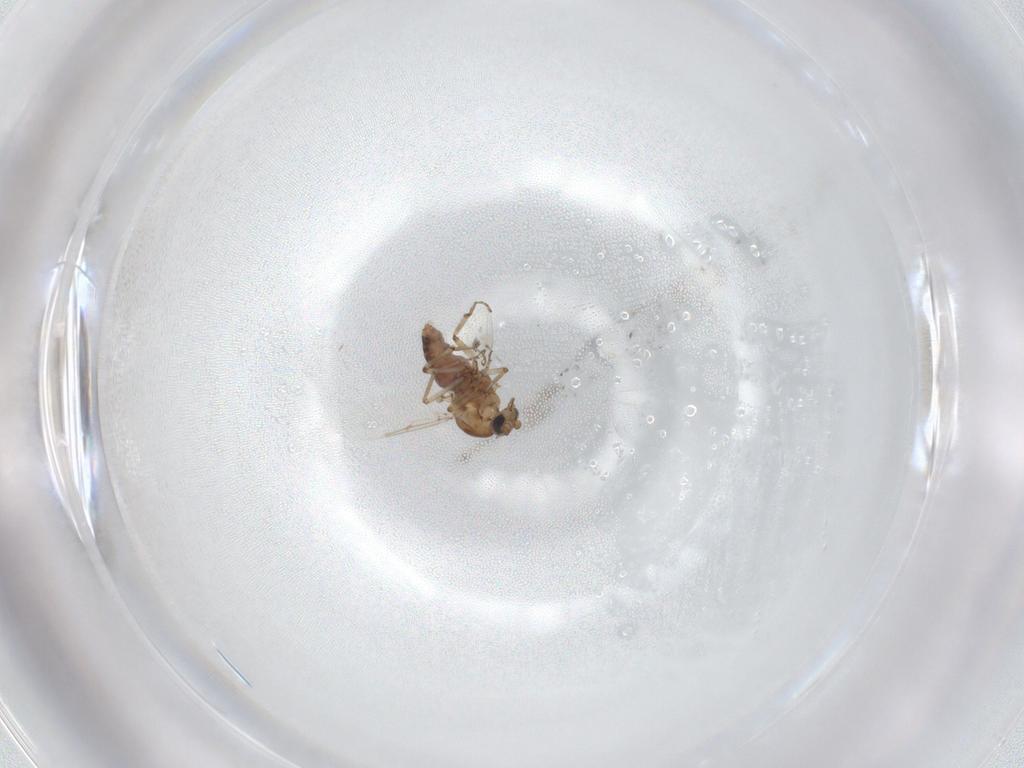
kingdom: Animalia
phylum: Arthropoda
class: Insecta
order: Diptera
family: Ceratopogonidae
